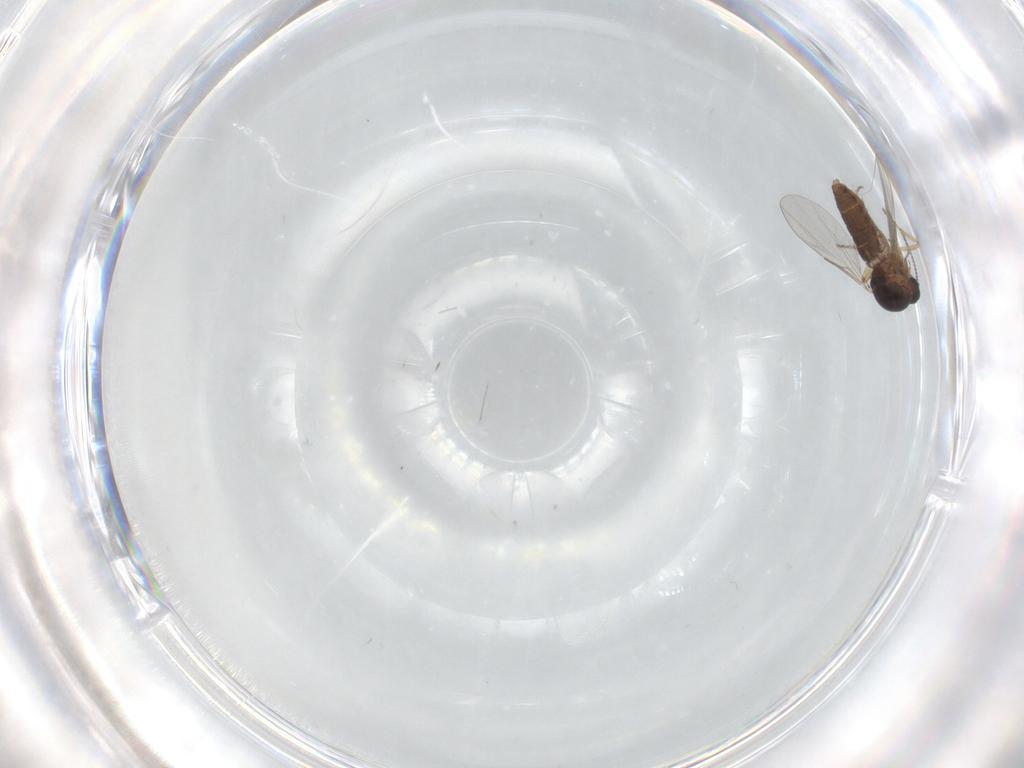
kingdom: Animalia
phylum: Arthropoda
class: Insecta
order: Diptera
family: Ceratopogonidae
